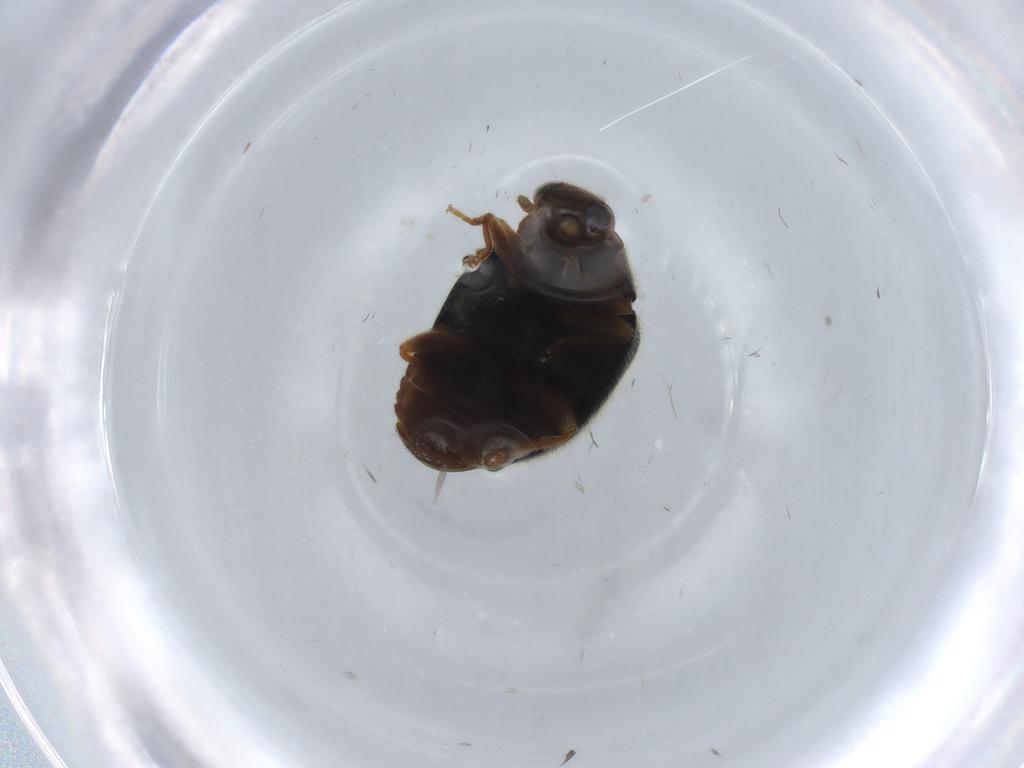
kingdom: Animalia
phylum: Arthropoda
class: Insecta
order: Coleoptera
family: Coccinellidae
